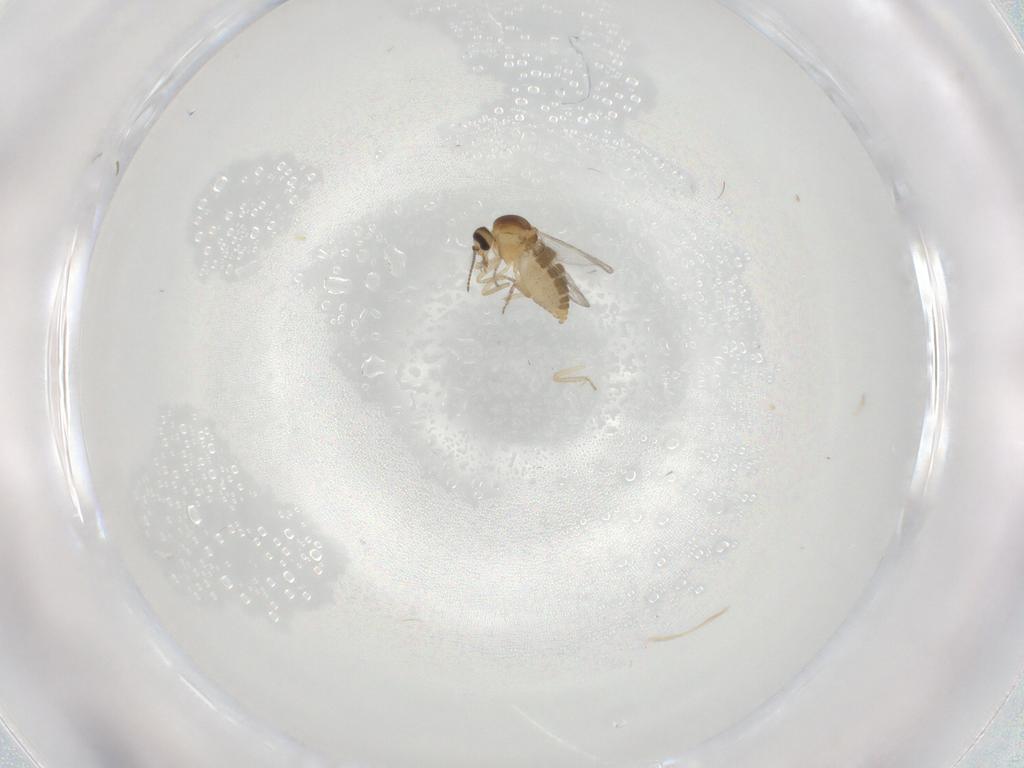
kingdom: Animalia
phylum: Arthropoda
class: Insecta
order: Diptera
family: Ceratopogonidae
